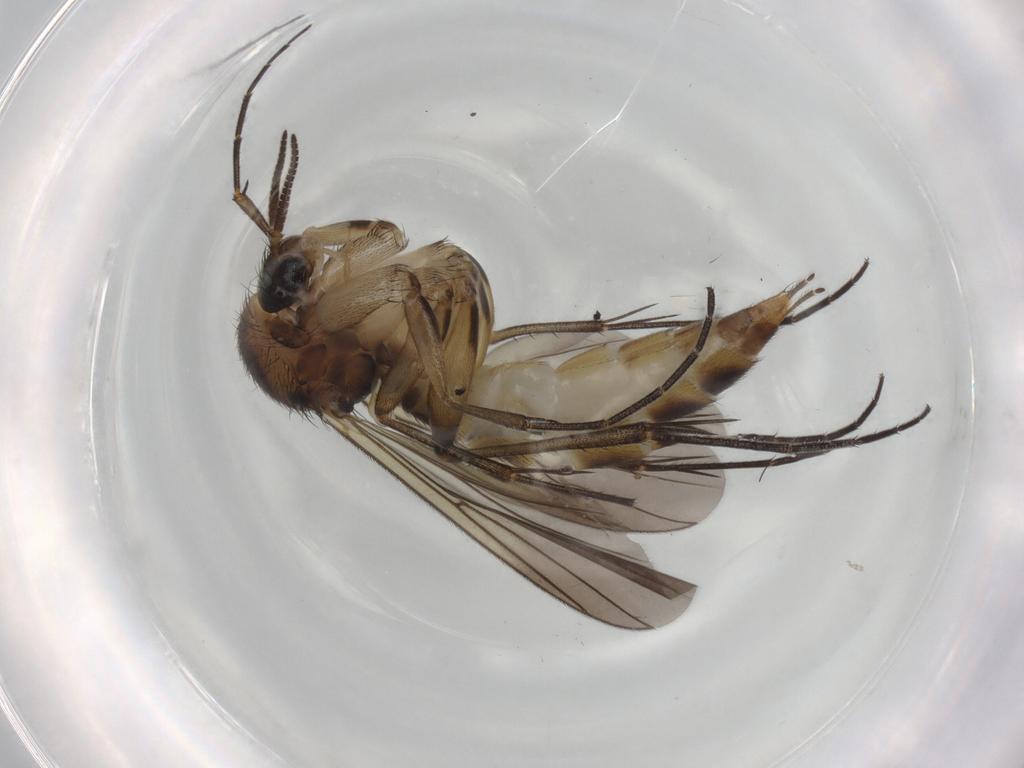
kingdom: Animalia
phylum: Arthropoda
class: Insecta
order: Diptera
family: Mycetophilidae
